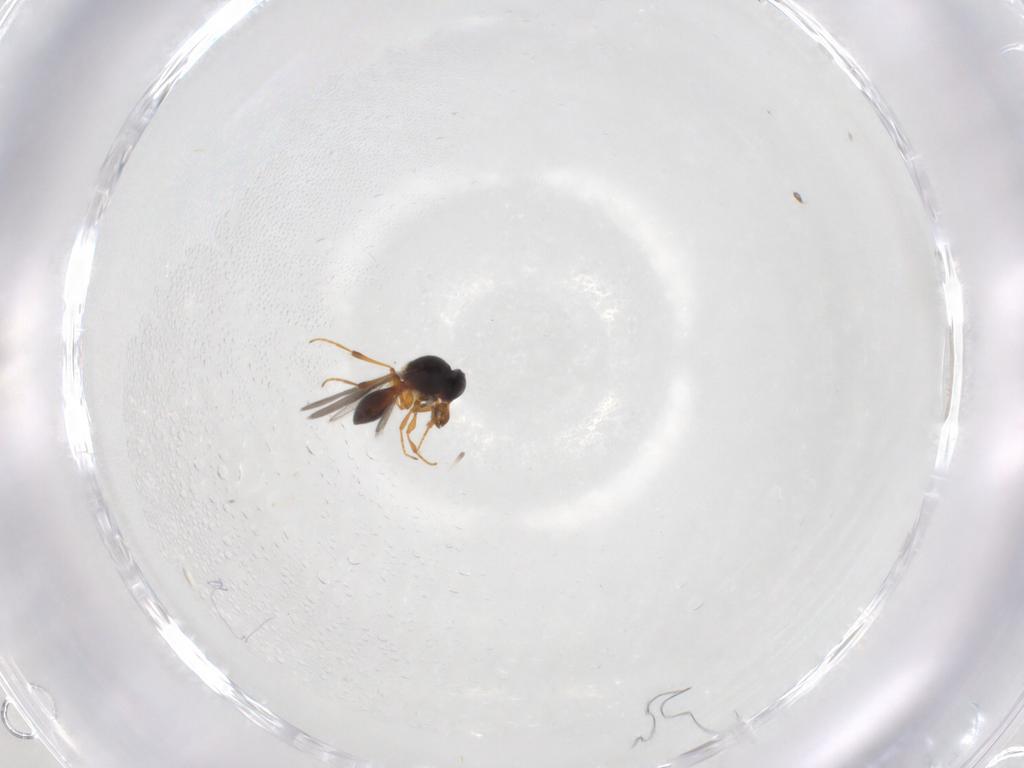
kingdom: Animalia
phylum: Arthropoda
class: Insecta
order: Hymenoptera
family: Platygastridae
